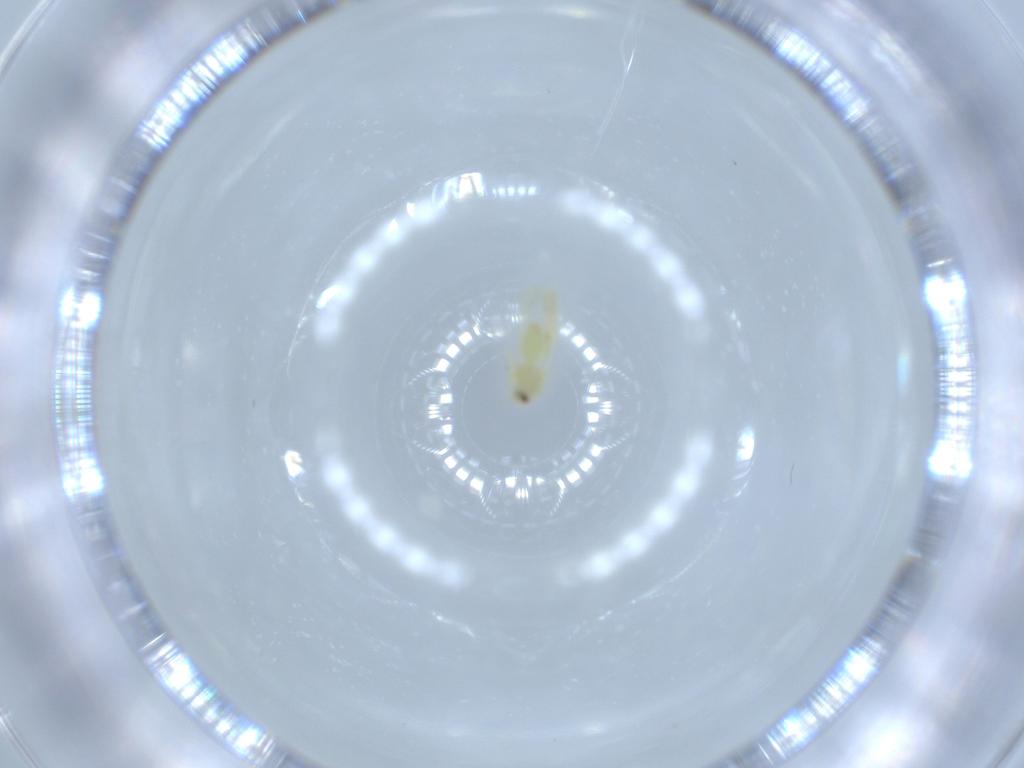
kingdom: Animalia
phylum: Arthropoda
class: Insecta
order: Hemiptera
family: Aleyrodidae
